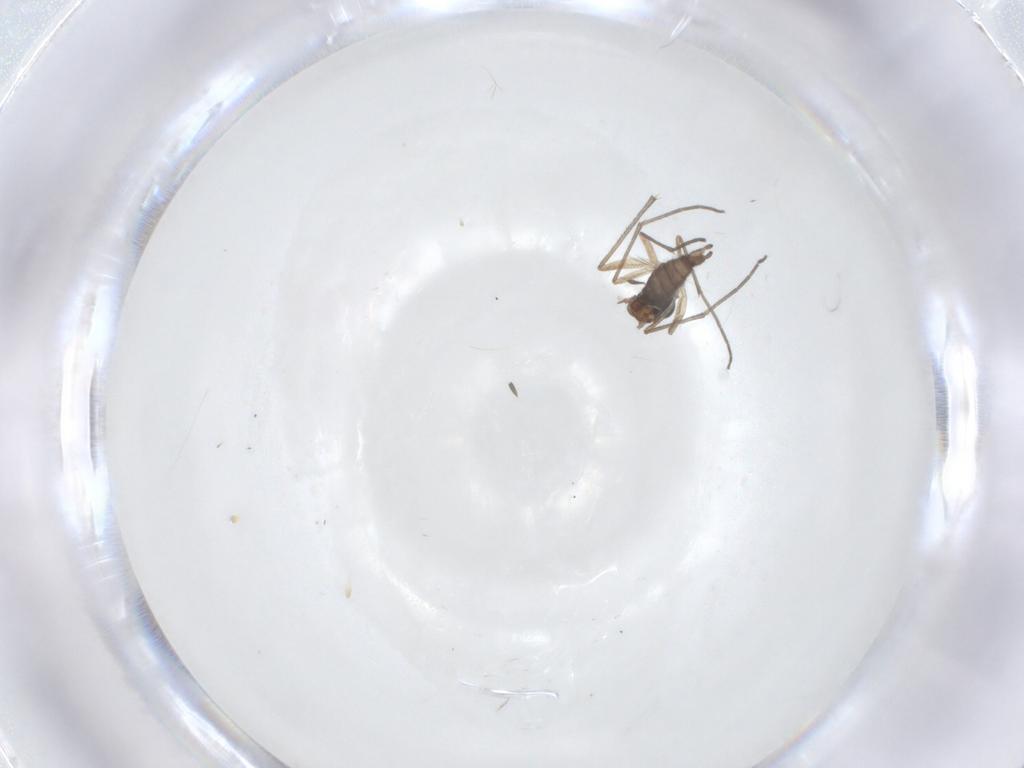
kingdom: Animalia
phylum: Arthropoda
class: Insecta
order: Diptera
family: Sciaridae
